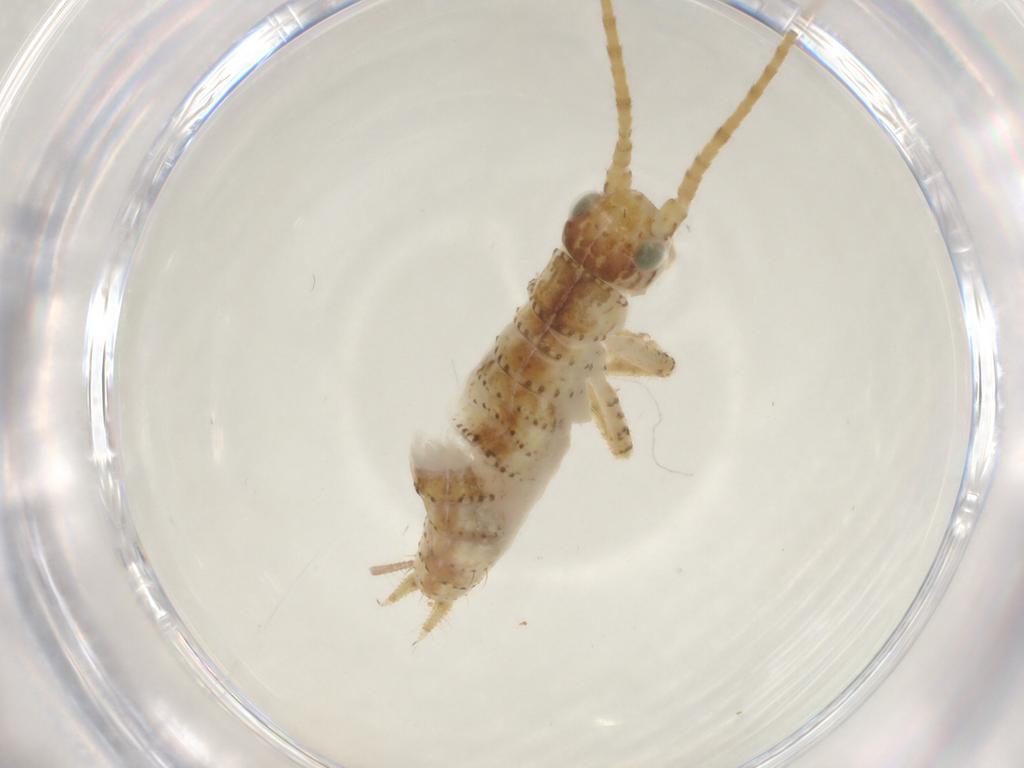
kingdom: Animalia
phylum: Arthropoda
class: Insecta
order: Orthoptera
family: Gryllidae
